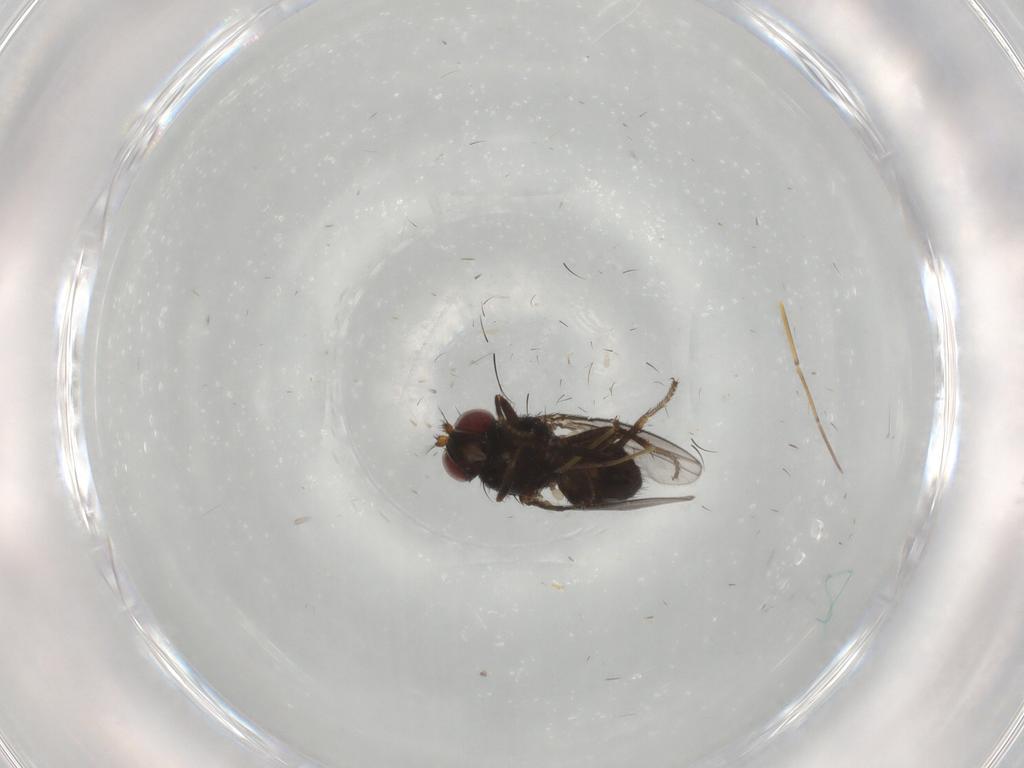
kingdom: Animalia
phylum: Arthropoda
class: Insecta
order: Diptera
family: Ephydridae
